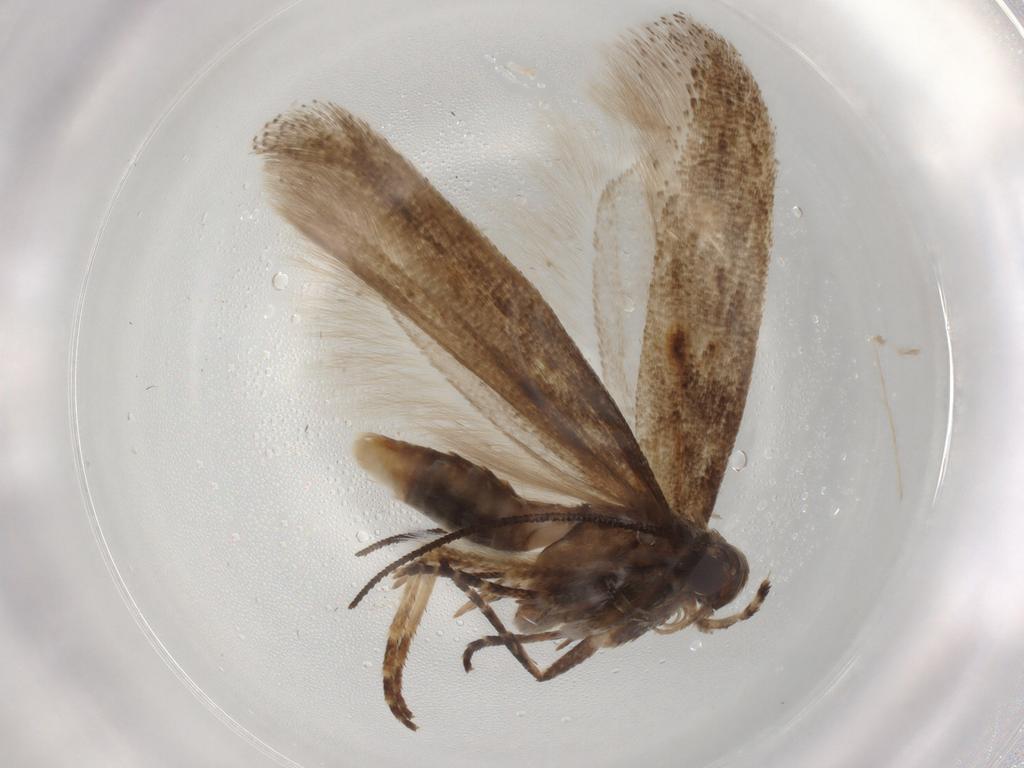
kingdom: Animalia
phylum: Arthropoda
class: Insecta
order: Lepidoptera
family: Gelechiidae
